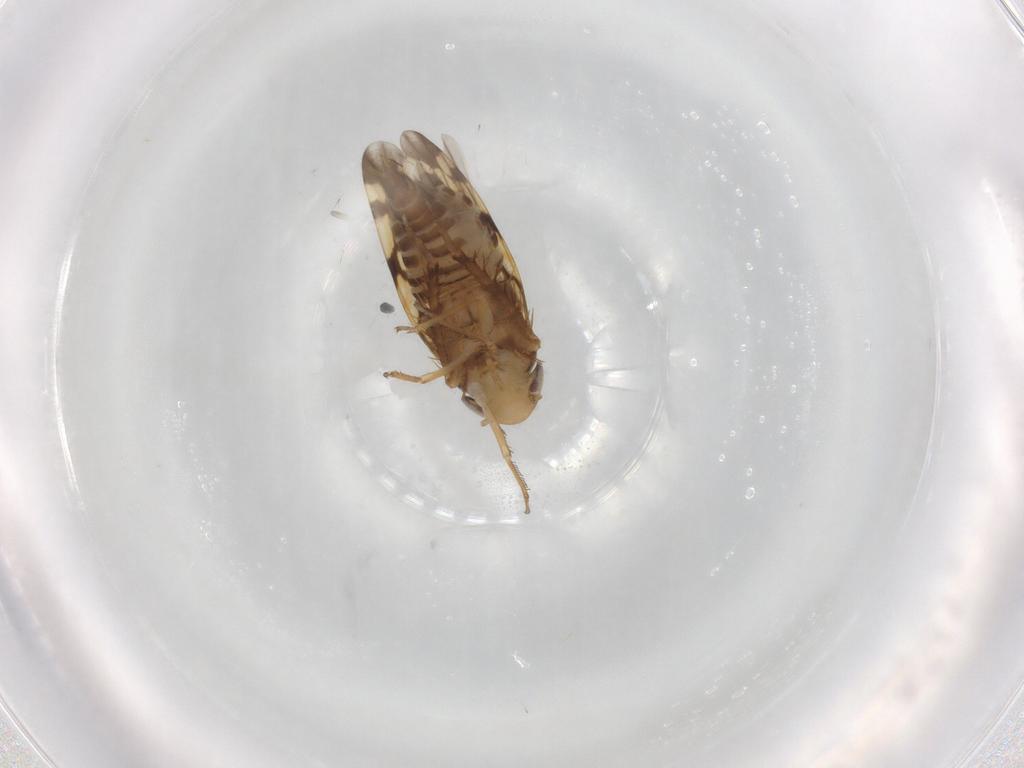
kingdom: Animalia
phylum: Arthropoda
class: Insecta
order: Hemiptera
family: Cicadellidae
